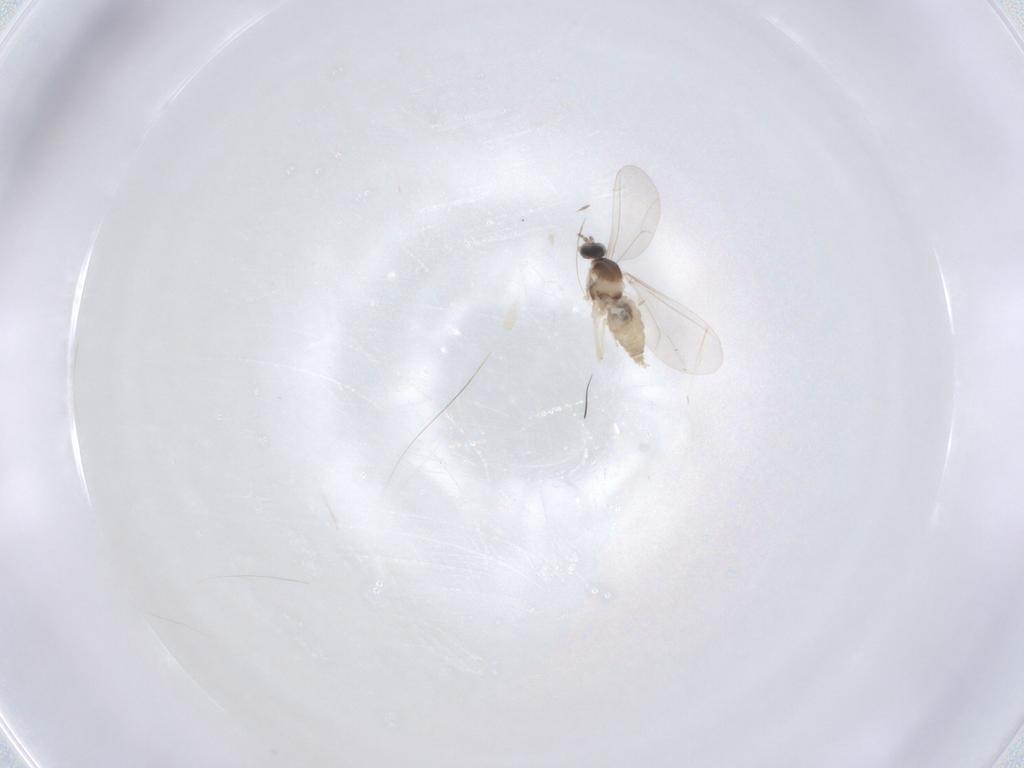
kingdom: Animalia
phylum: Arthropoda
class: Insecta
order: Diptera
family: Cecidomyiidae
